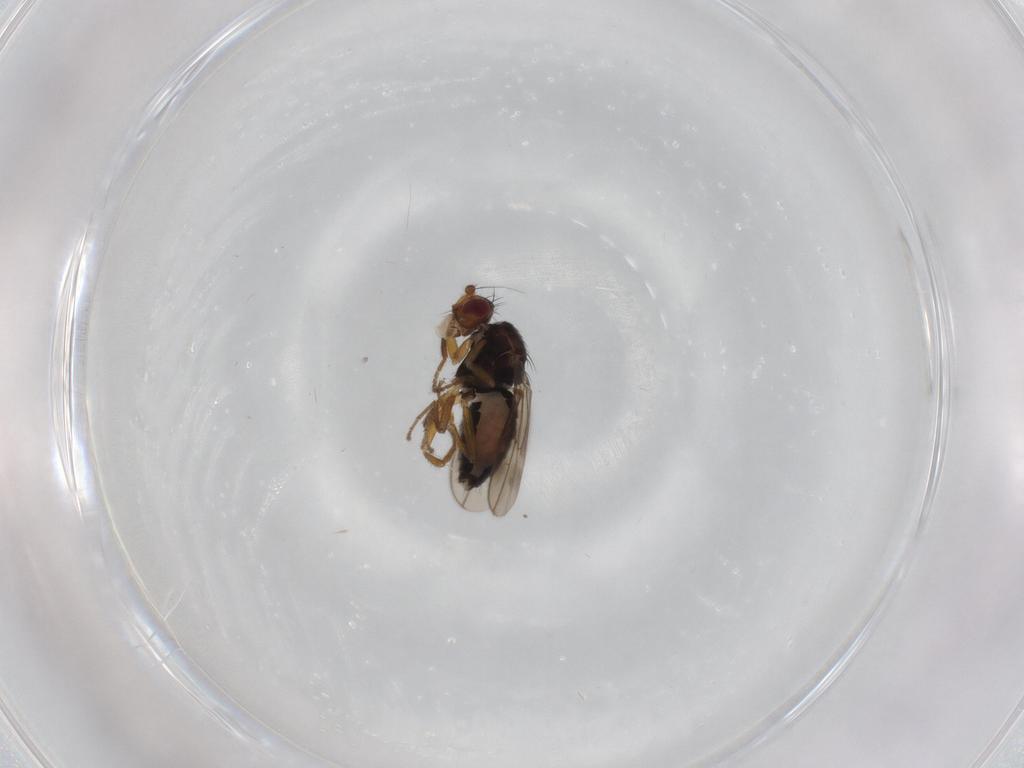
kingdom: Animalia
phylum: Arthropoda
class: Insecta
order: Diptera
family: Sphaeroceridae
